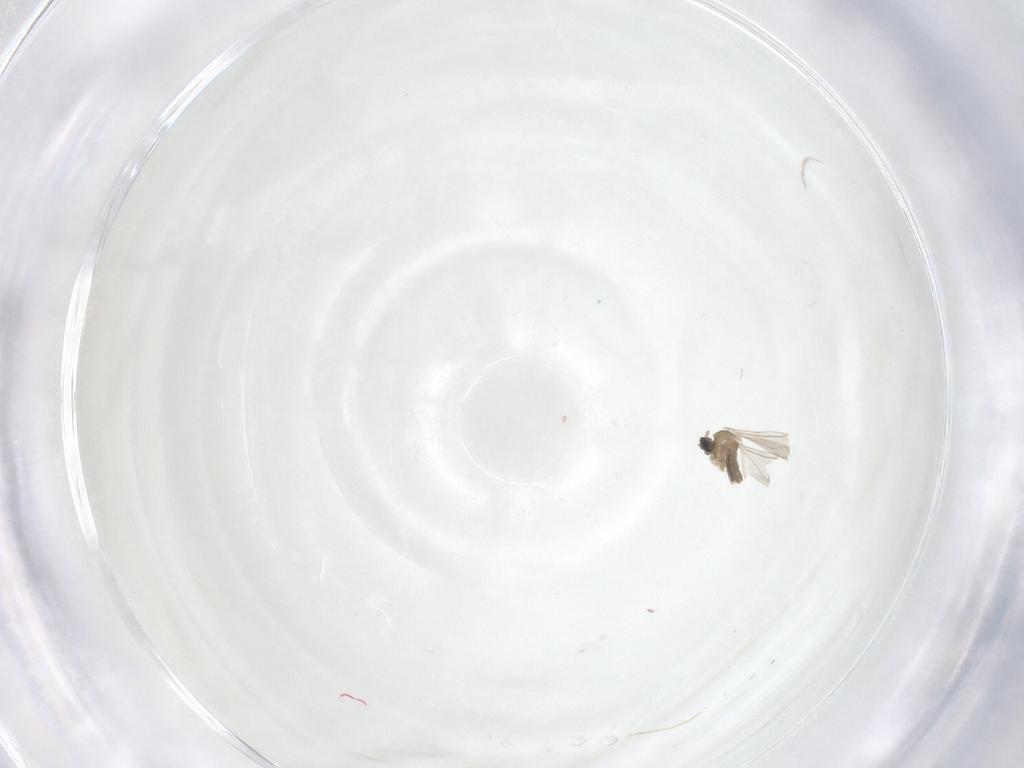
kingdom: Animalia
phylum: Arthropoda
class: Insecta
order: Diptera
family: Cecidomyiidae
